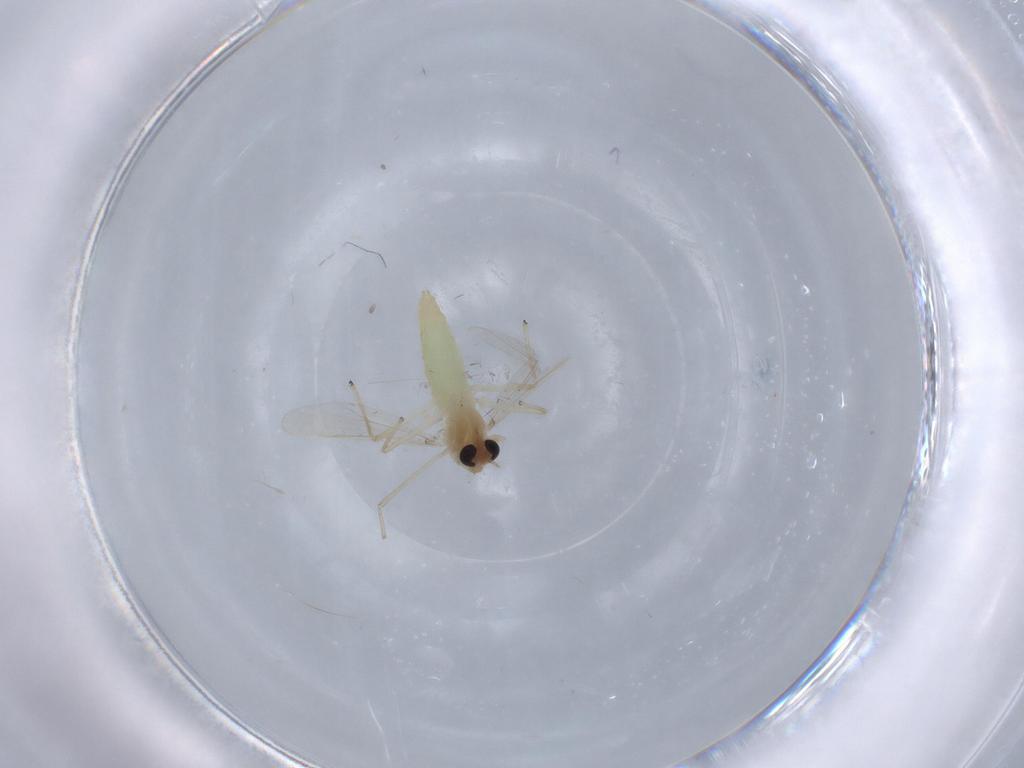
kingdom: Animalia
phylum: Arthropoda
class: Insecta
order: Diptera
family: Chironomidae
